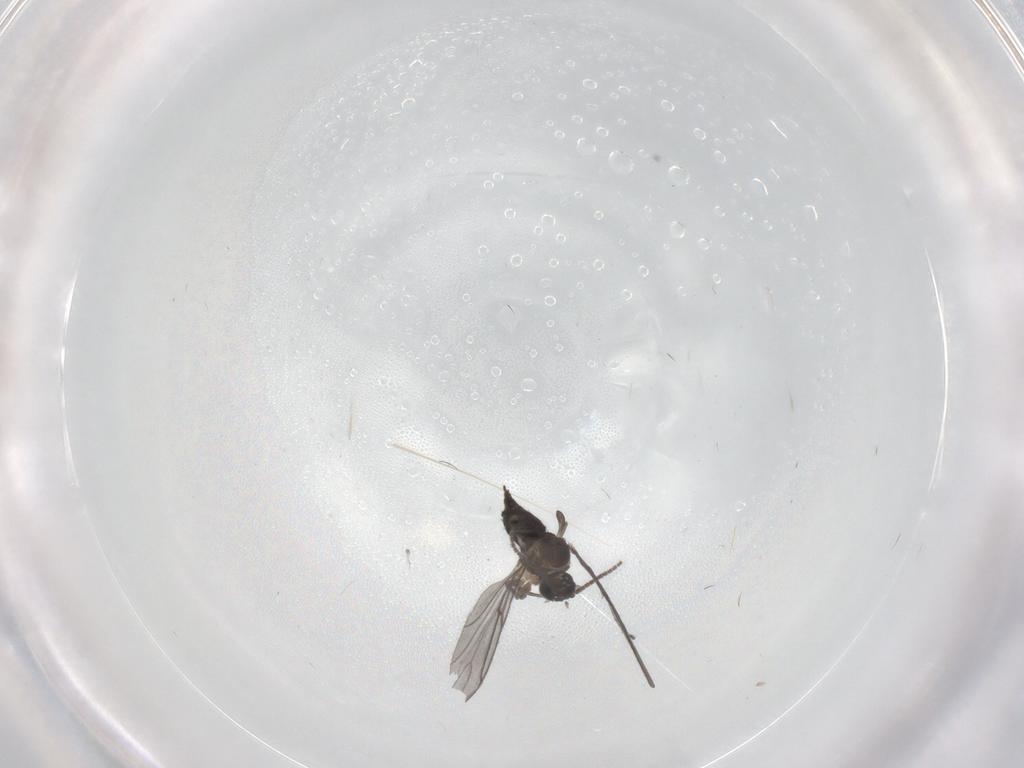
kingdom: Animalia
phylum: Arthropoda
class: Insecta
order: Diptera
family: Sciaridae
